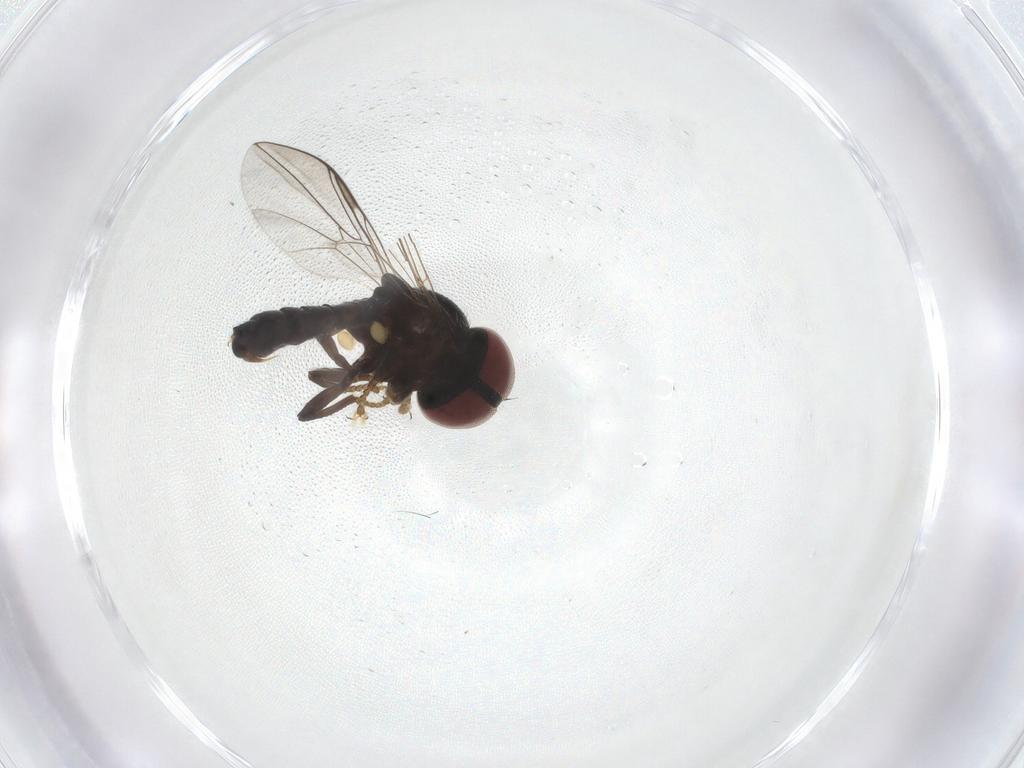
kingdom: Animalia
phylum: Arthropoda
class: Insecta
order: Diptera
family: Pipunculidae
